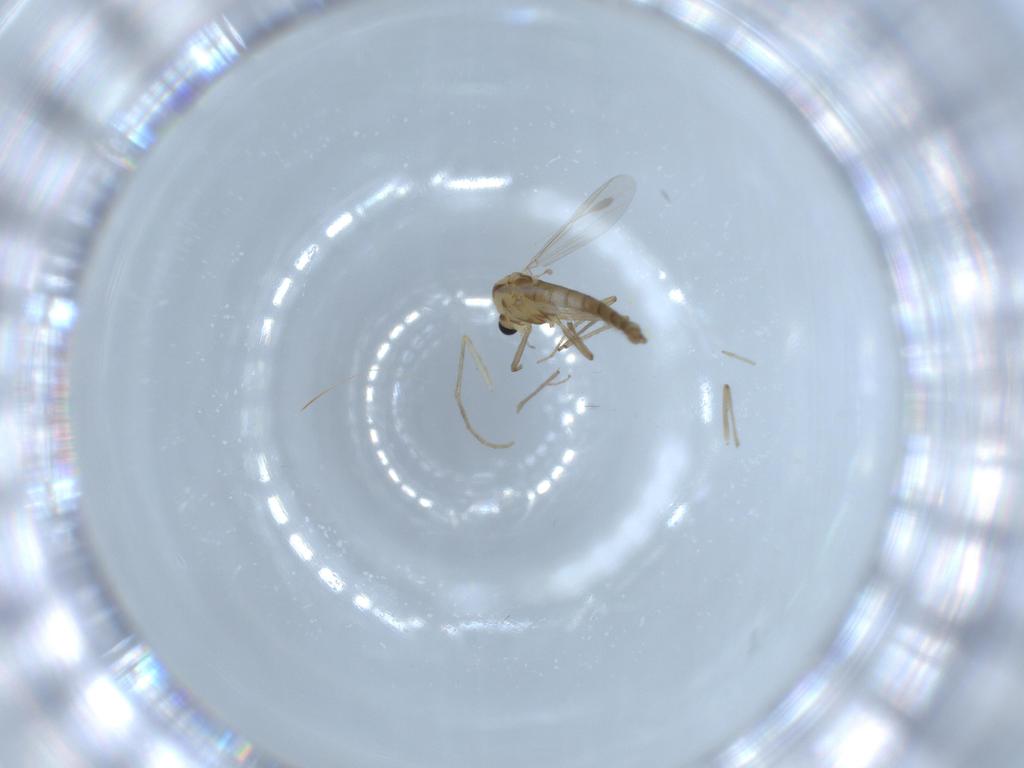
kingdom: Animalia
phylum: Arthropoda
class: Insecta
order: Diptera
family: Chironomidae
